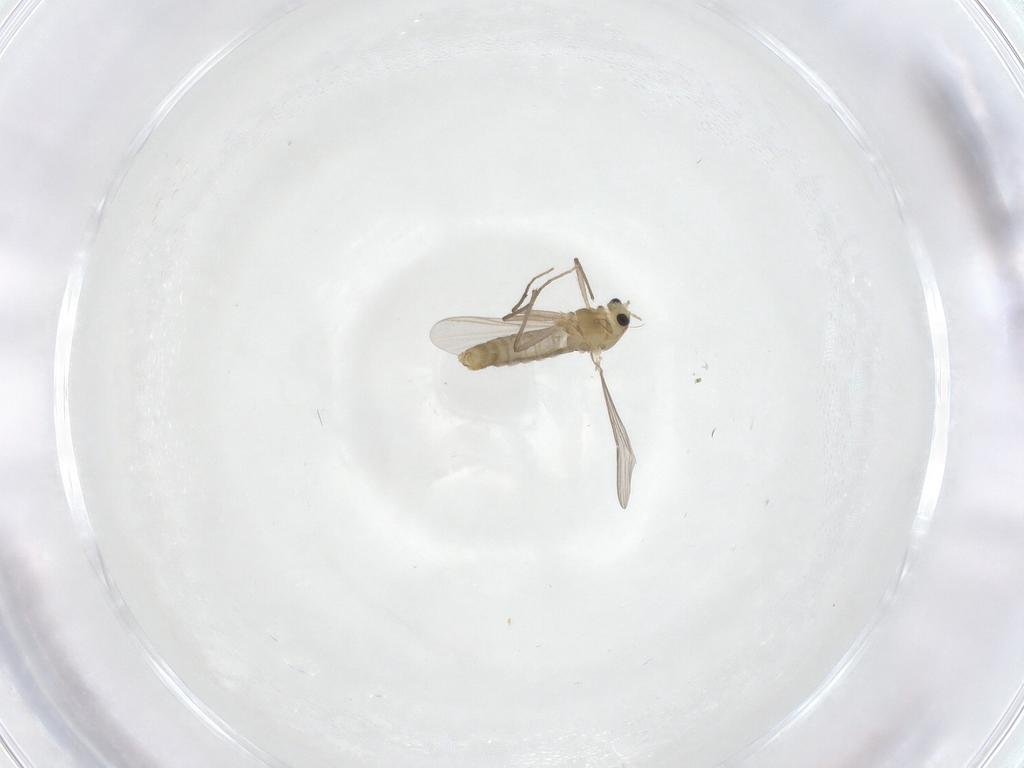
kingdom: Animalia
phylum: Arthropoda
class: Insecta
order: Diptera
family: Chironomidae
